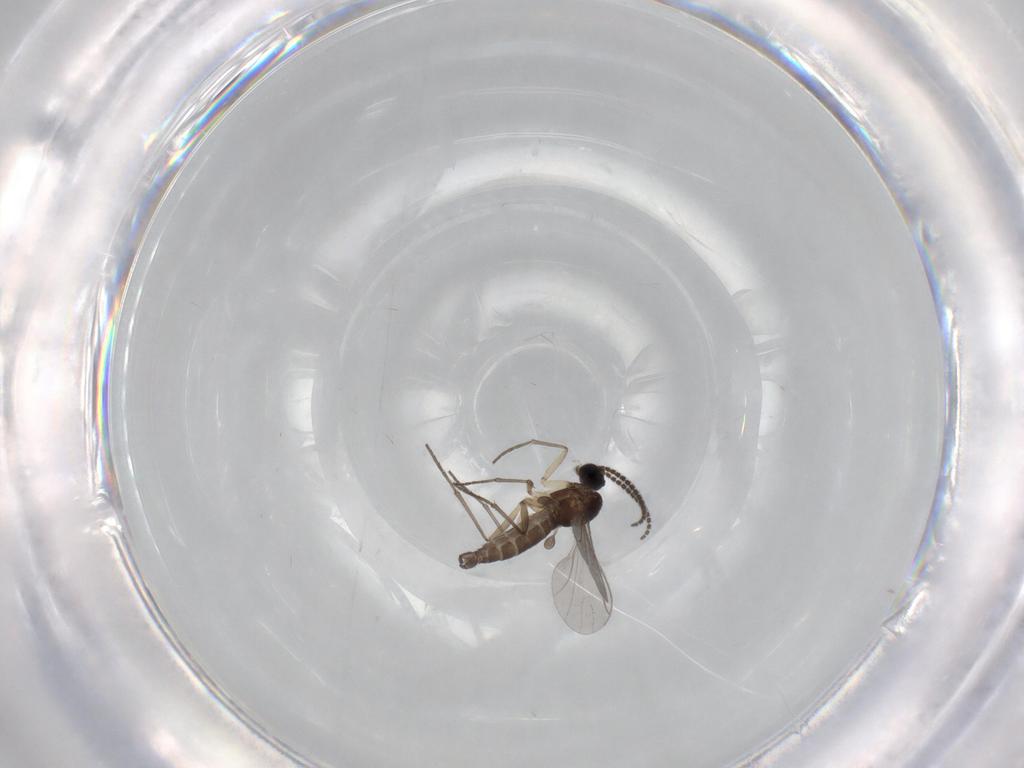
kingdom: Animalia
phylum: Arthropoda
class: Insecta
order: Diptera
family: Sciaridae
